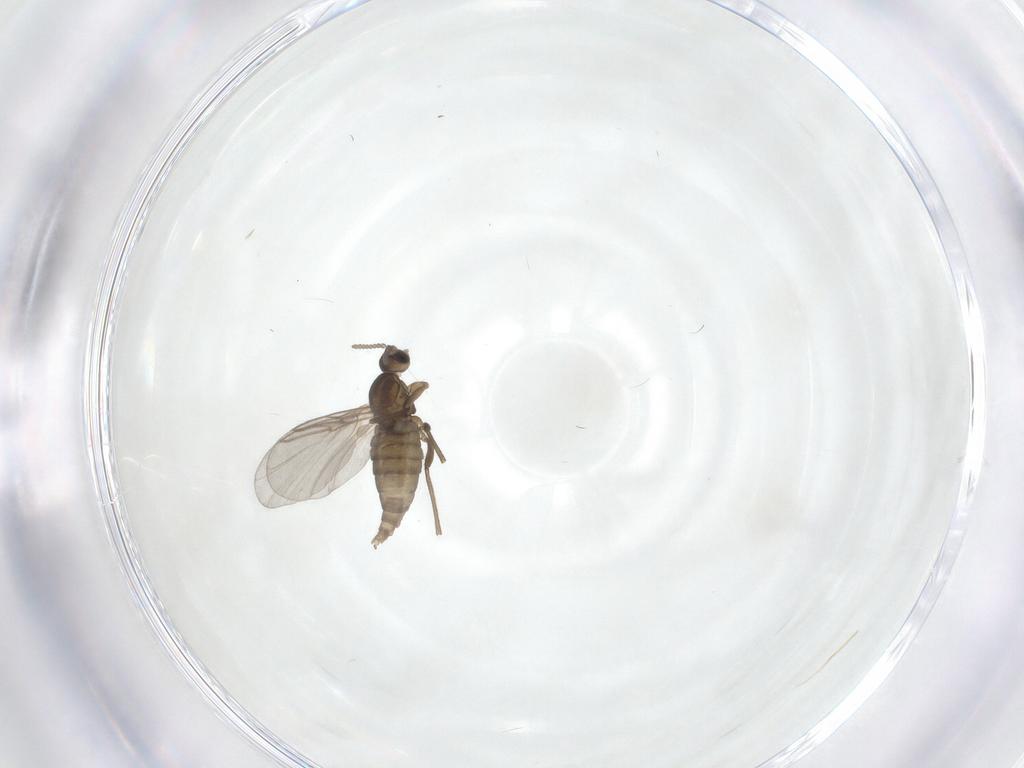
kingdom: Animalia
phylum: Arthropoda
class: Insecta
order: Diptera
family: Cecidomyiidae
